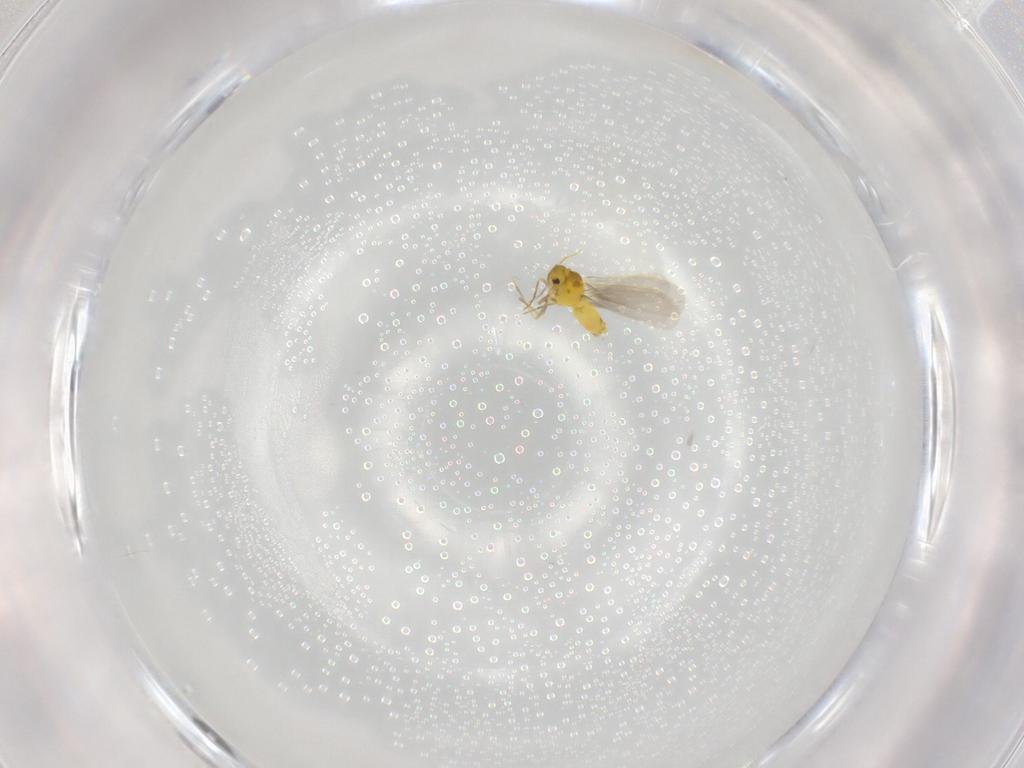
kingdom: Animalia
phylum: Arthropoda
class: Insecta
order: Hemiptera
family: Aleyrodidae
